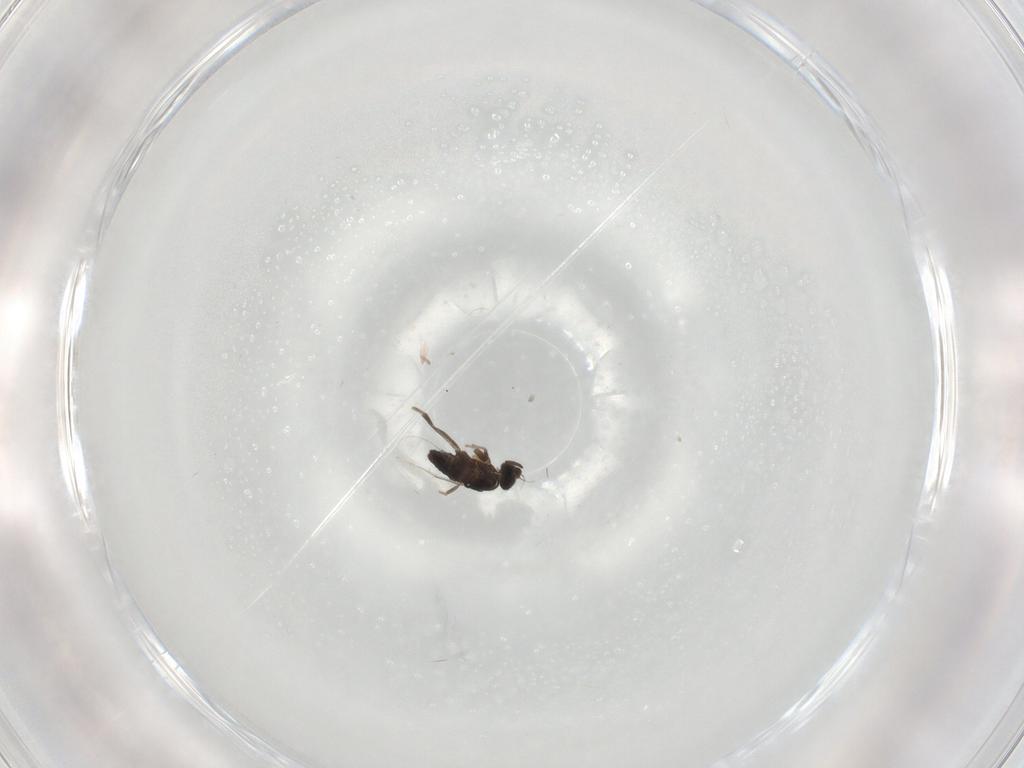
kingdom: Animalia
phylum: Arthropoda
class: Insecta
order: Diptera
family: Phoridae
